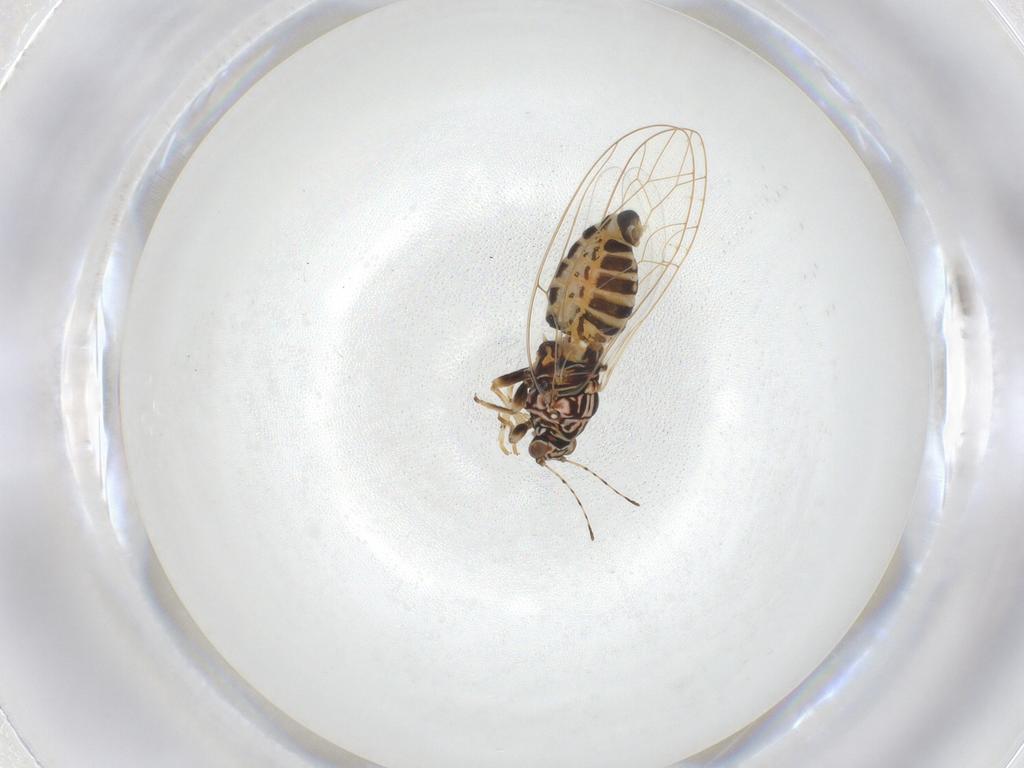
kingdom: Animalia
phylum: Arthropoda
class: Insecta
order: Hemiptera
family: Triozidae
